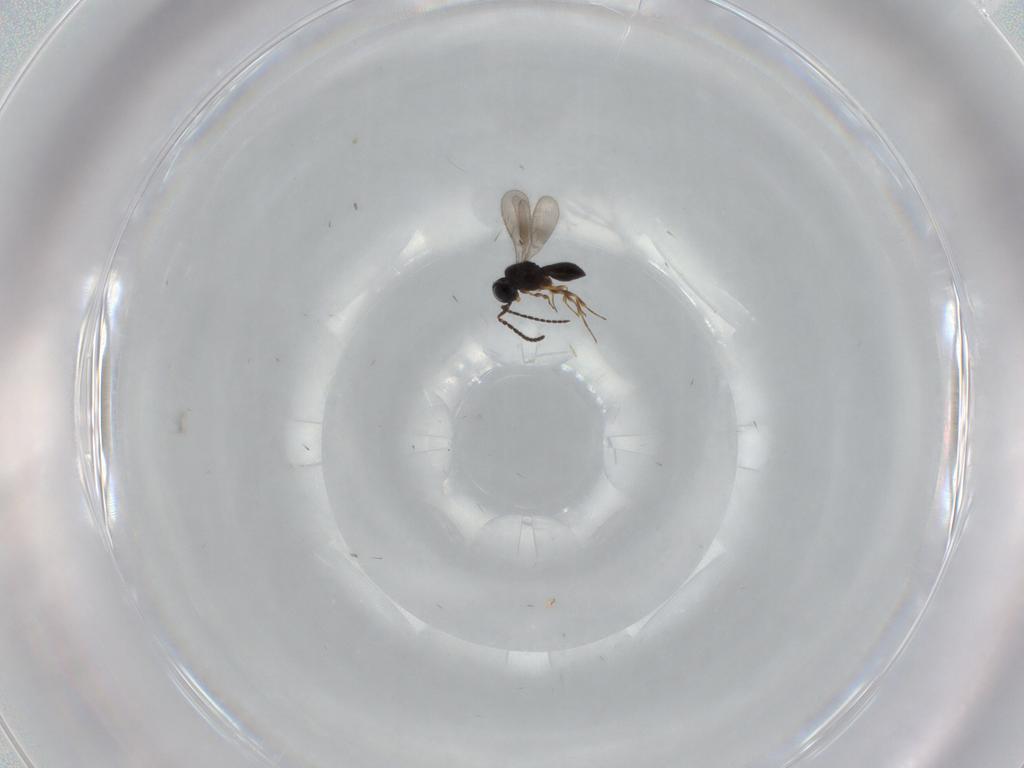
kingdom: Animalia
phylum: Arthropoda
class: Insecta
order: Hymenoptera
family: Scelionidae
